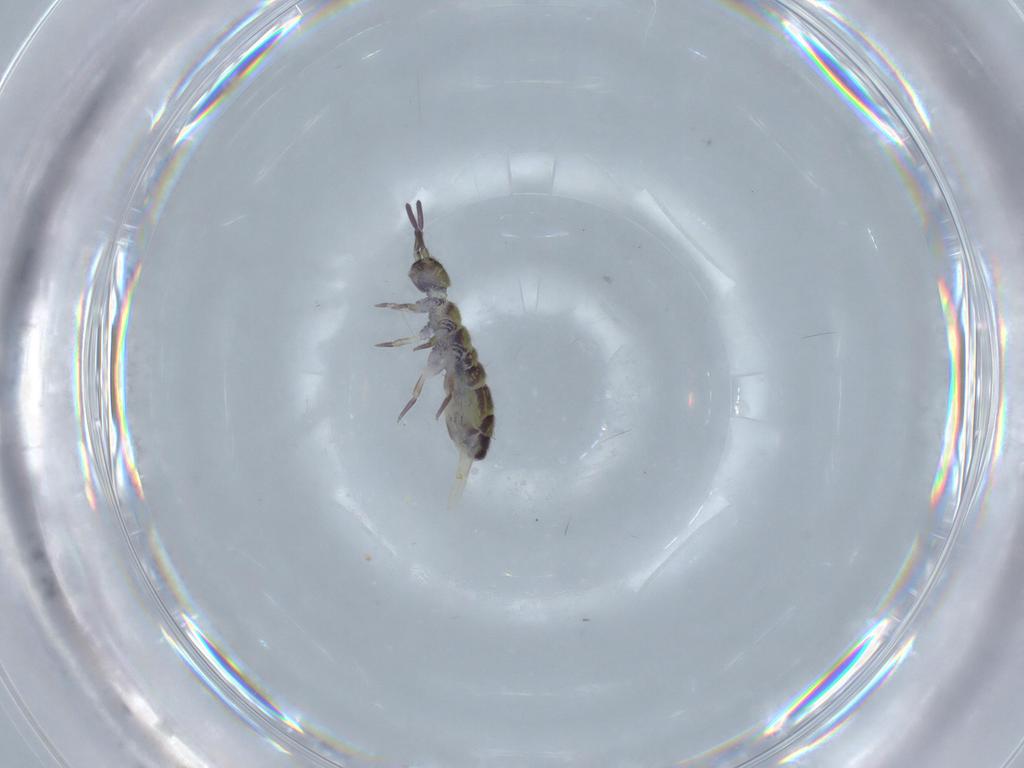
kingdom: Animalia
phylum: Arthropoda
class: Collembola
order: Entomobryomorpha
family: Isotomidae
